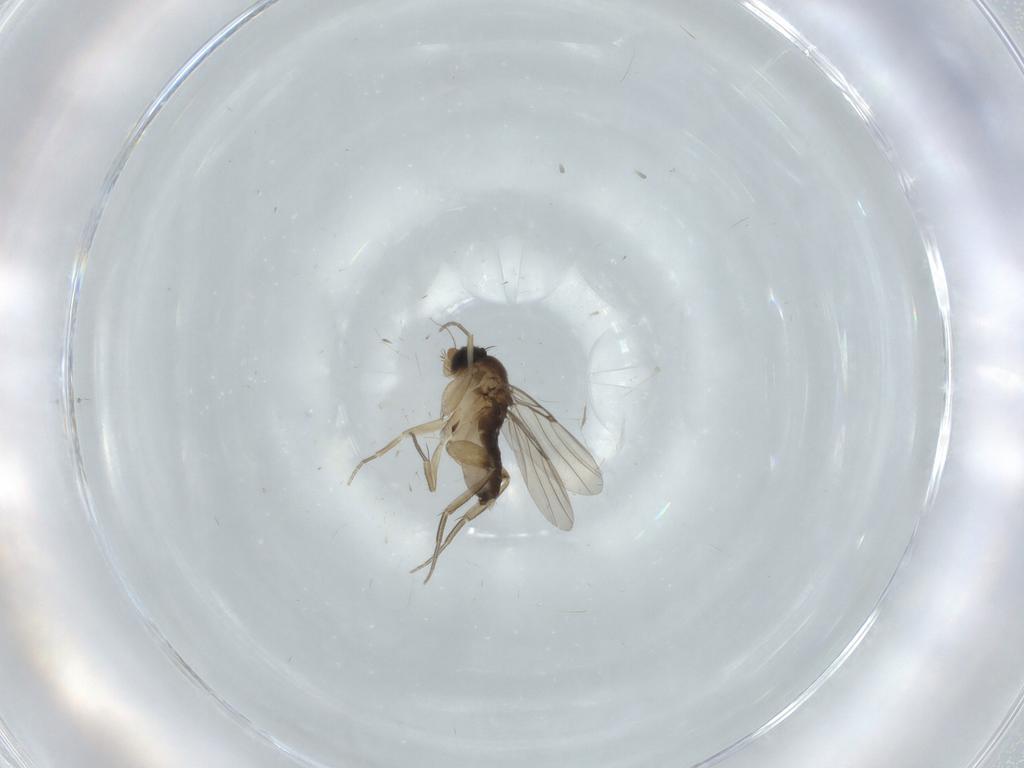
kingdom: Animalia
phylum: Arthropoda
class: Insecta
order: Diptera
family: Phoridae
